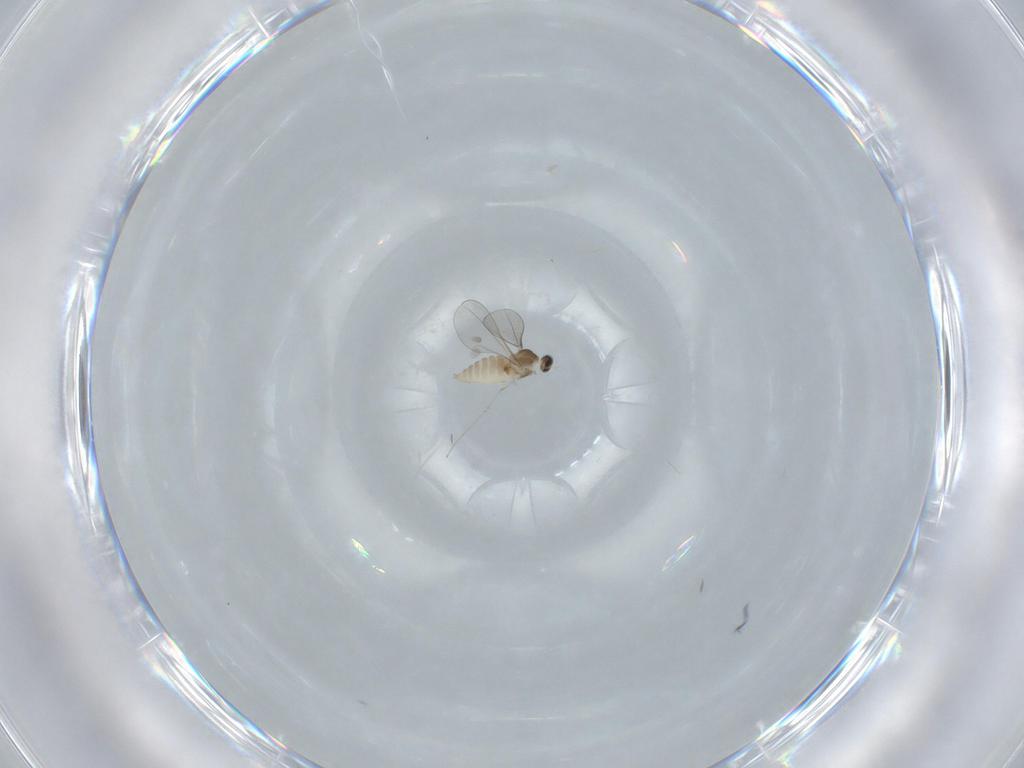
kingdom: Animalia
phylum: Arthropoda
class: Insecta
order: Diptera
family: Cecidomyiidae
